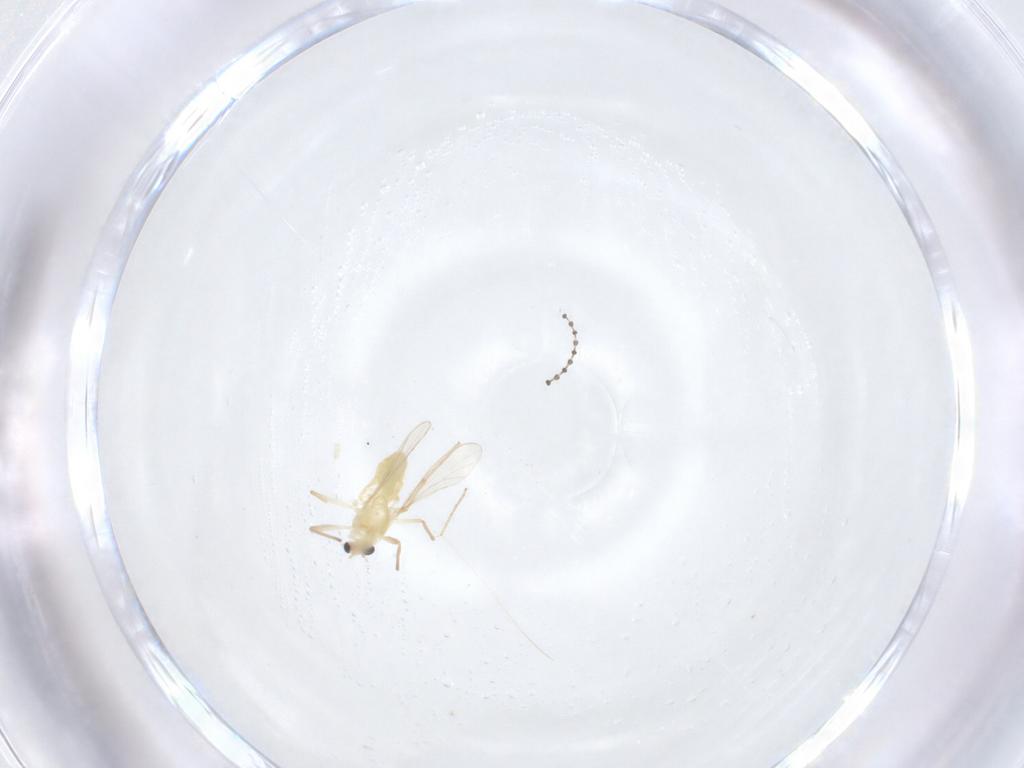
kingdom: Animalia
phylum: Arthropoda
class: Insecta
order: Diptera
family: Chironomidae
